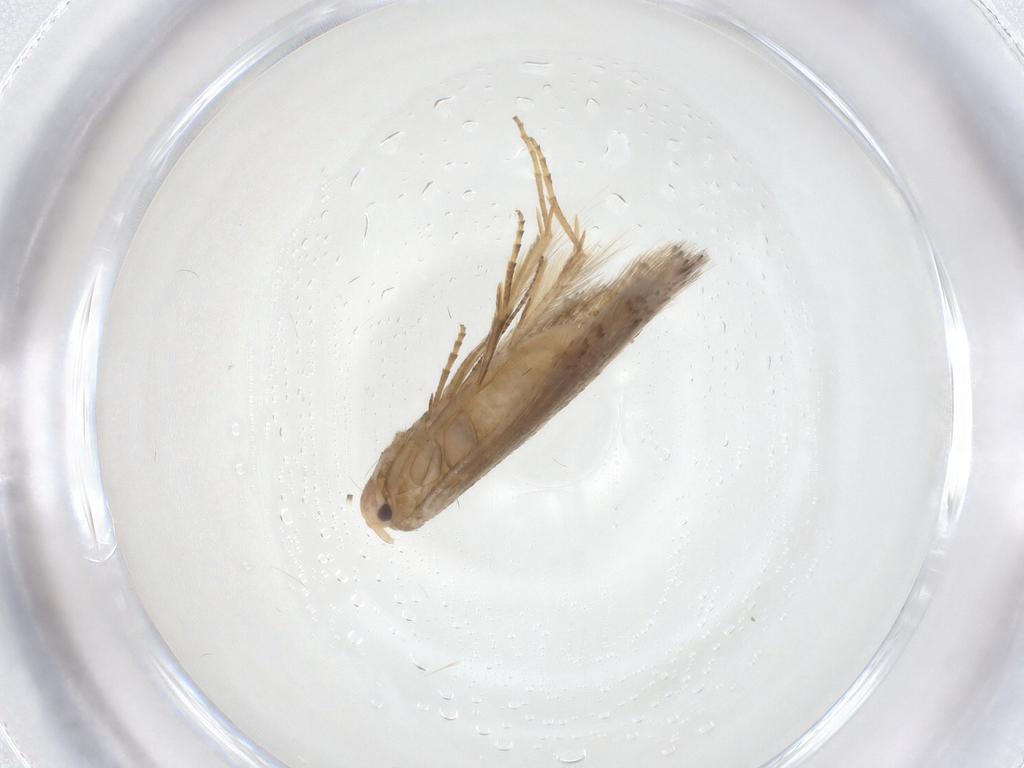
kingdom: Animalia
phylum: Arthropoda
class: Insecta
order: Lepidoptera
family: Bucculatricidae
